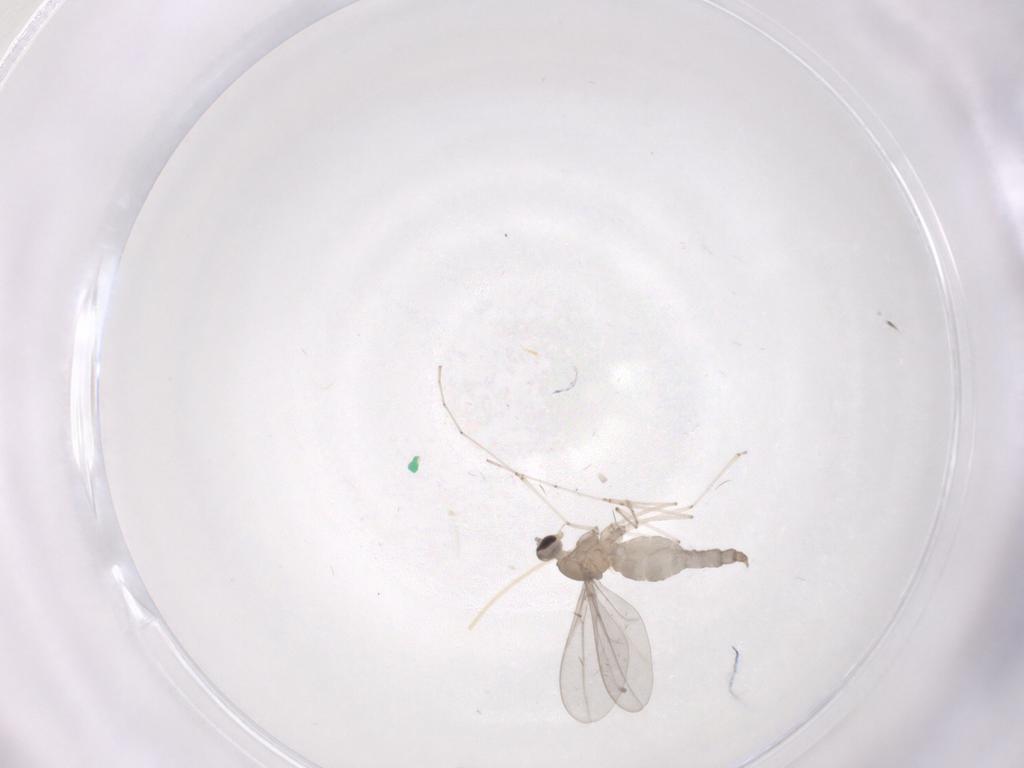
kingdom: Animalia
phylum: Arthropoda
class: Insecta
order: Diptera
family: Cecidomyiidae
